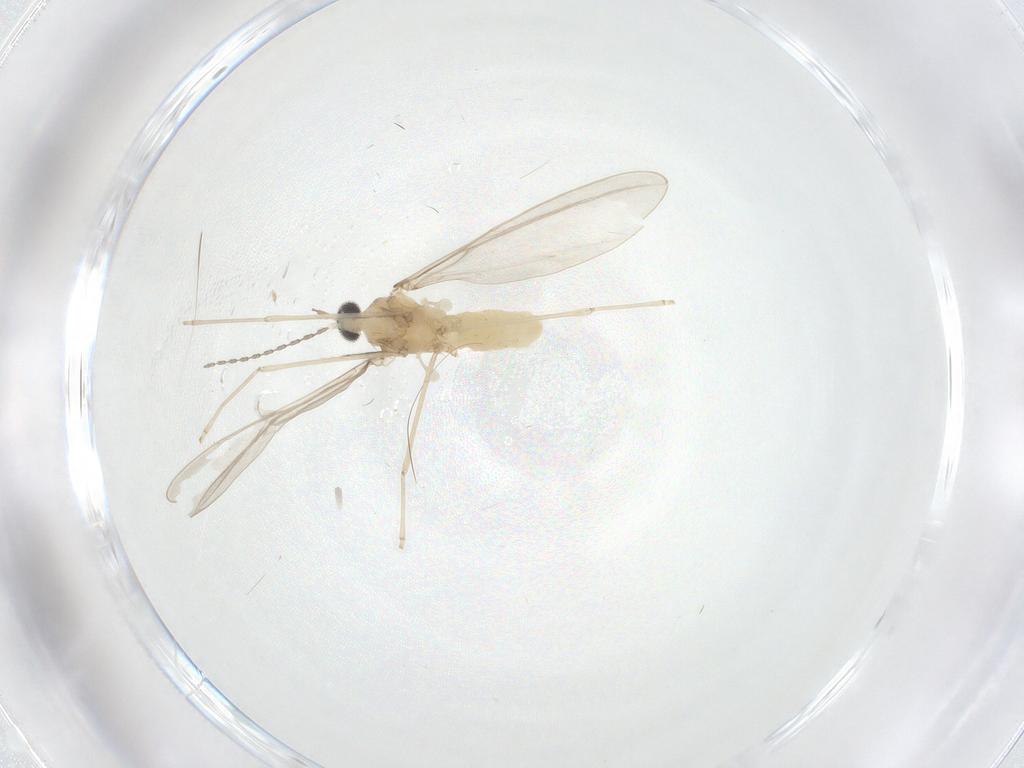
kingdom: Animalia
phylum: Arthropoda
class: Insecta
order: Diptera
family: Cecidomyiidae
